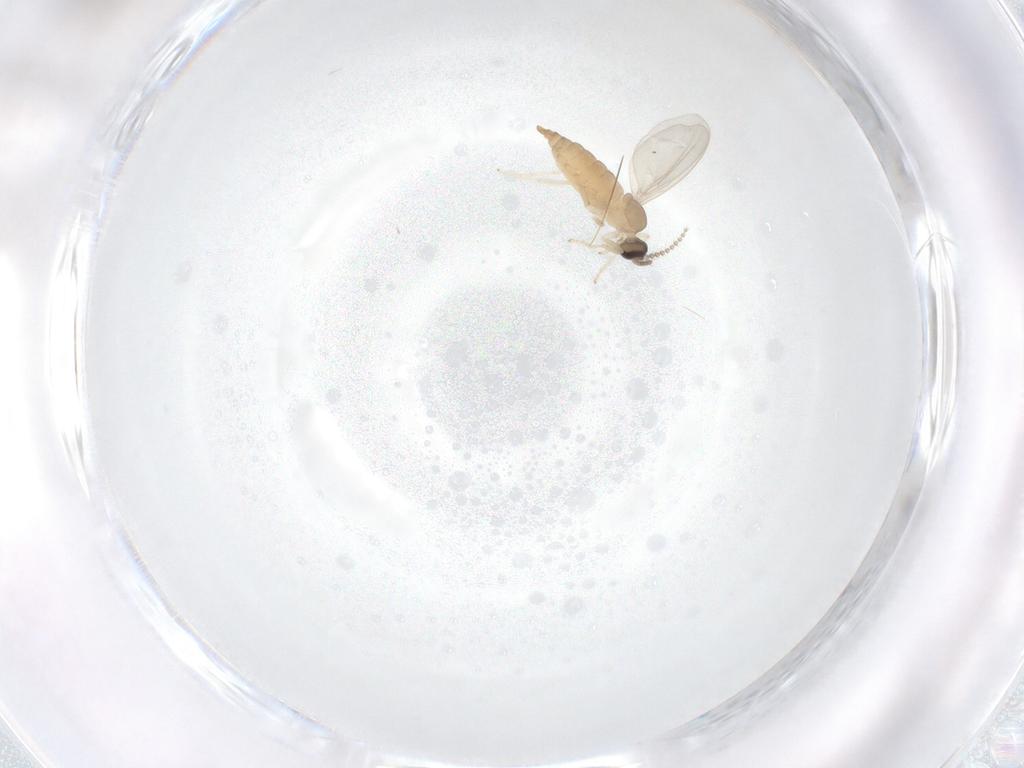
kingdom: Animalia
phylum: Arthropoda
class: Insecta
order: Diptera
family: Cecidomyiidae
